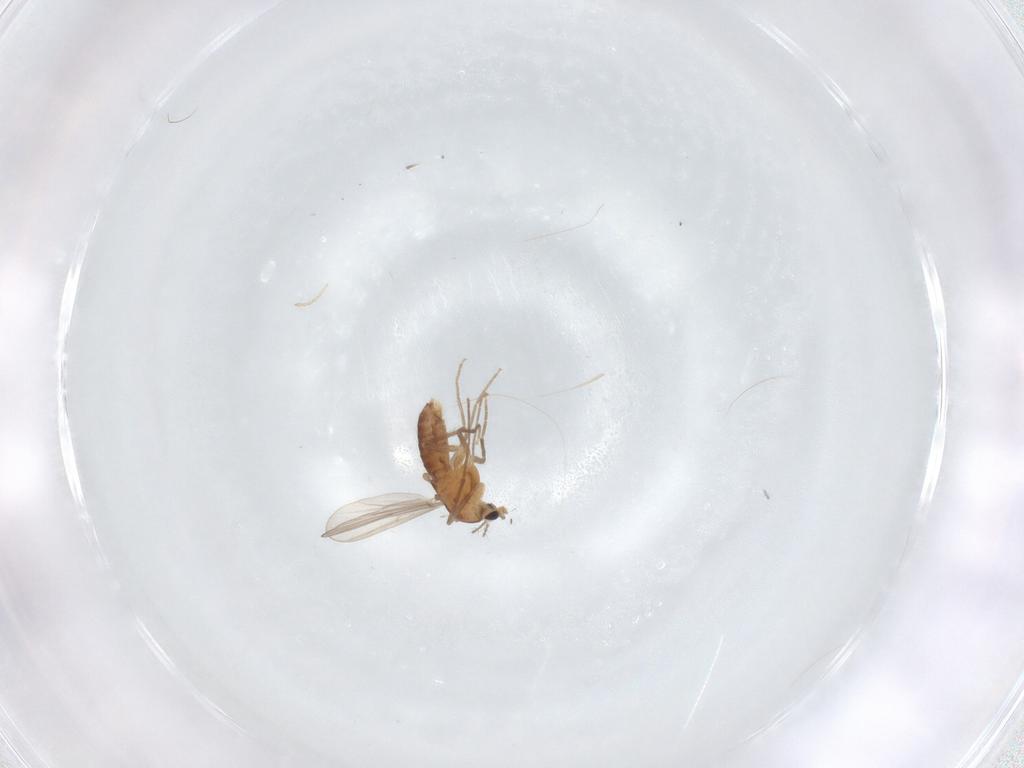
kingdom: Animalia
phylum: Arthropoda
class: Insecta
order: Diptera
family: Chironomidae
